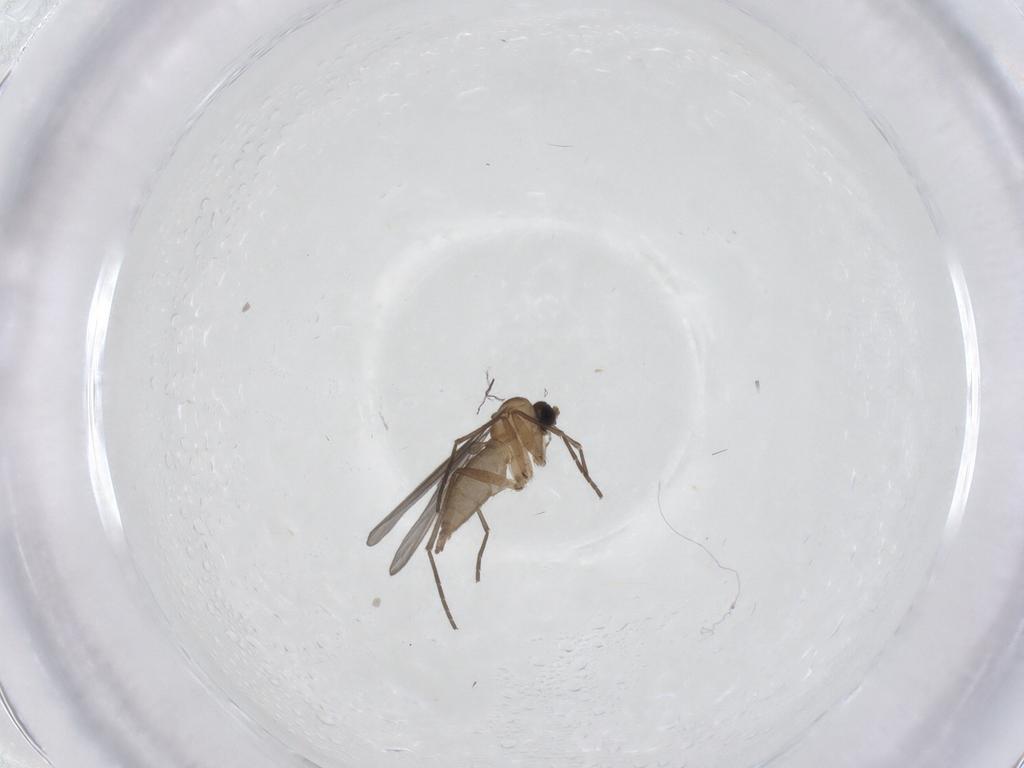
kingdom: Animalia
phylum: Arthropoda
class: Insecta
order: Diptera
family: Sciaridae
